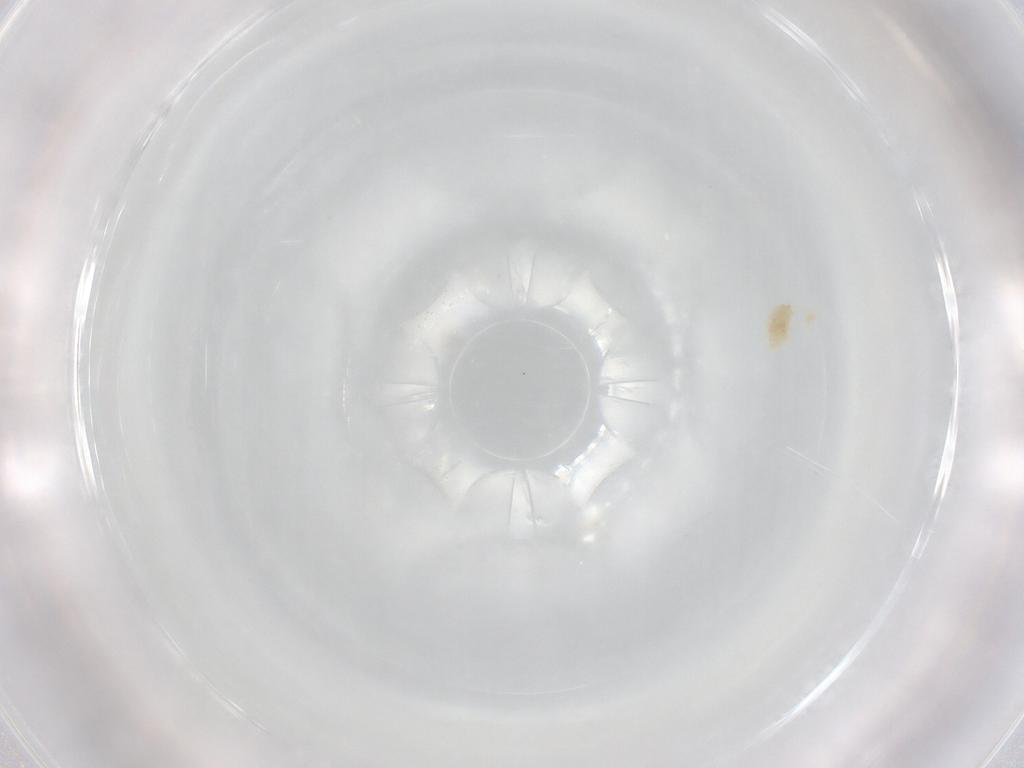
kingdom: Animalia
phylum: Arthropoda
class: Arachnida
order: Trombidiformes
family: Eupodidae
